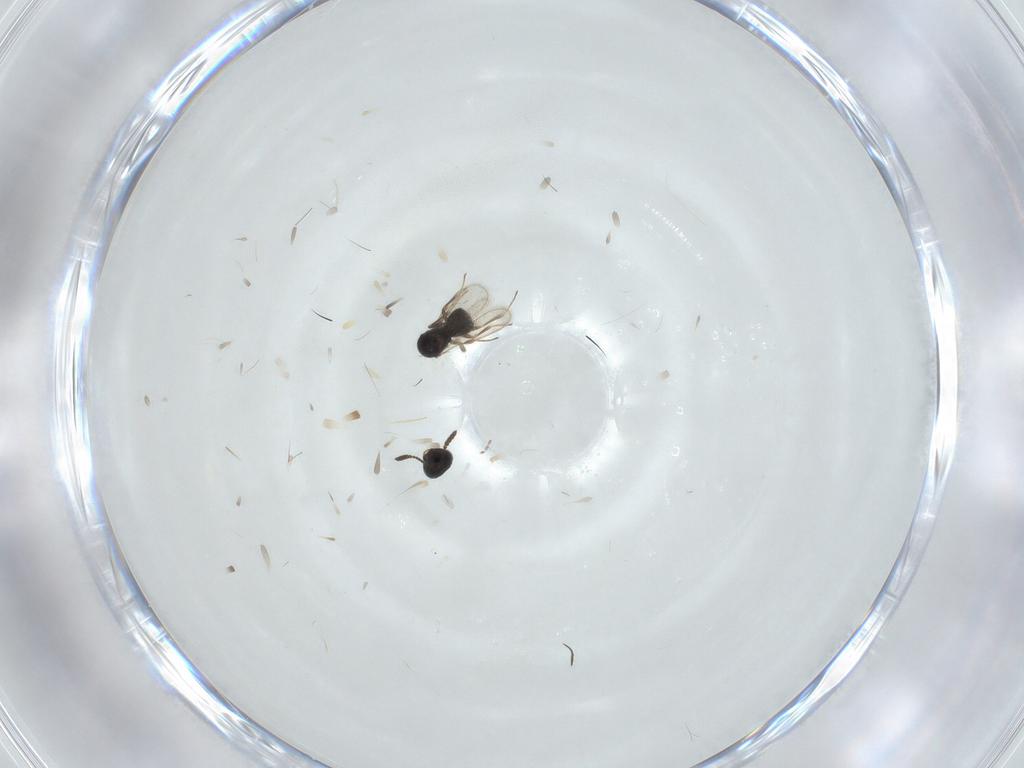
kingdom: Animalia
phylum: Arthropoda
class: Insecta
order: Hymenoptera
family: Scelionidae
